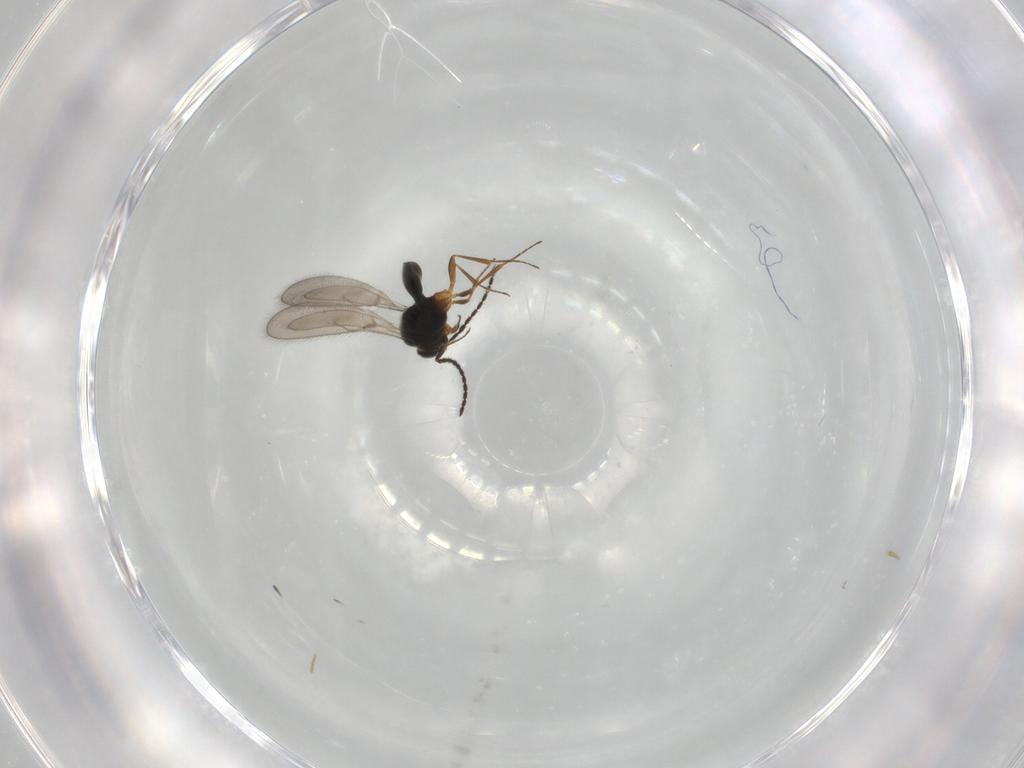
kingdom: Animalia
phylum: Arthropoda
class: Insecta
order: Hymenoptera
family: Scelionidae
